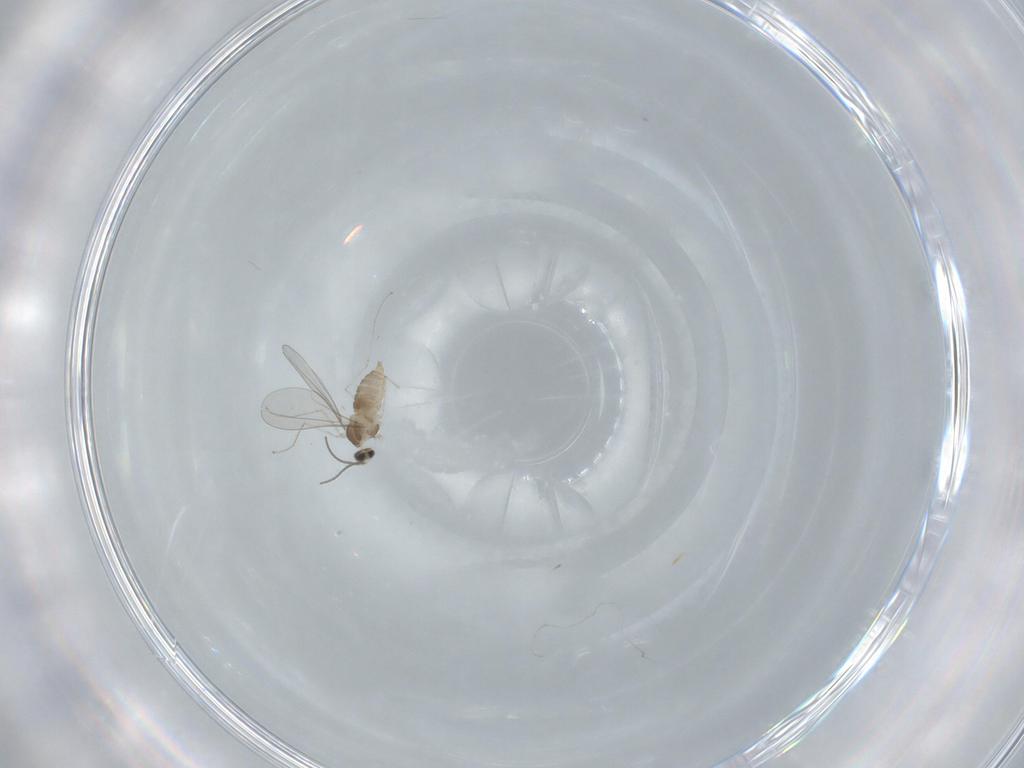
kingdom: Animalia
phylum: Arthropoda
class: Insecta
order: Diptera
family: Cecidomyiidae
